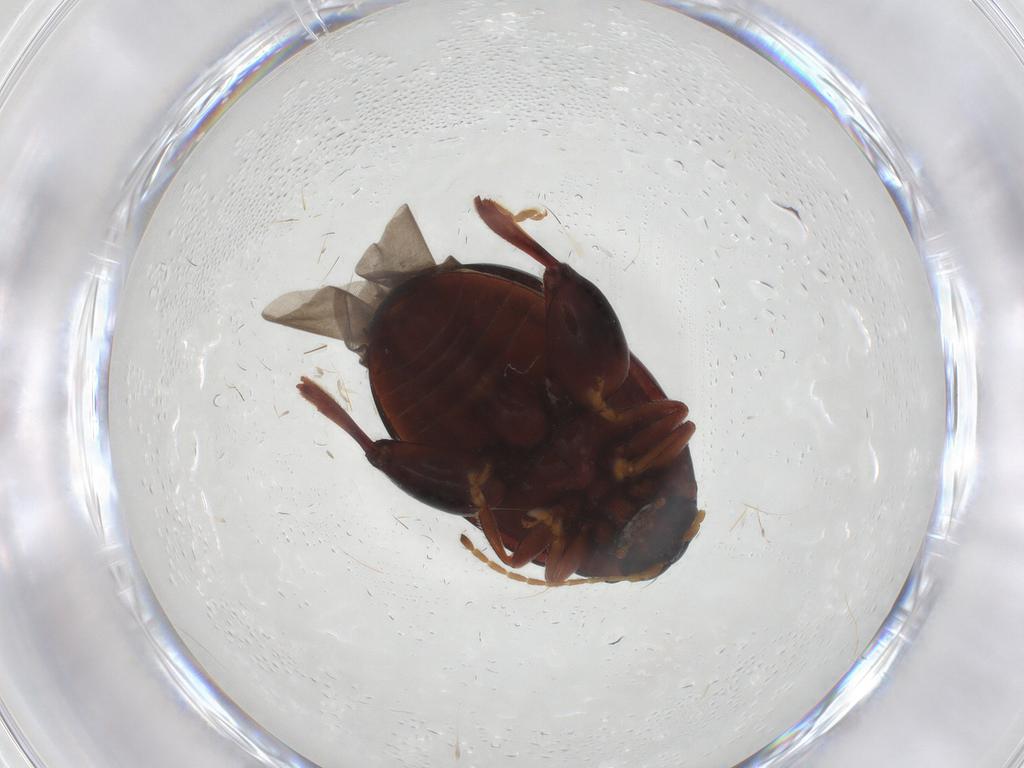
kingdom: Animalia
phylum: Arthropoda
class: Insecta
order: Coleoptera
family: Chrysomelidae
